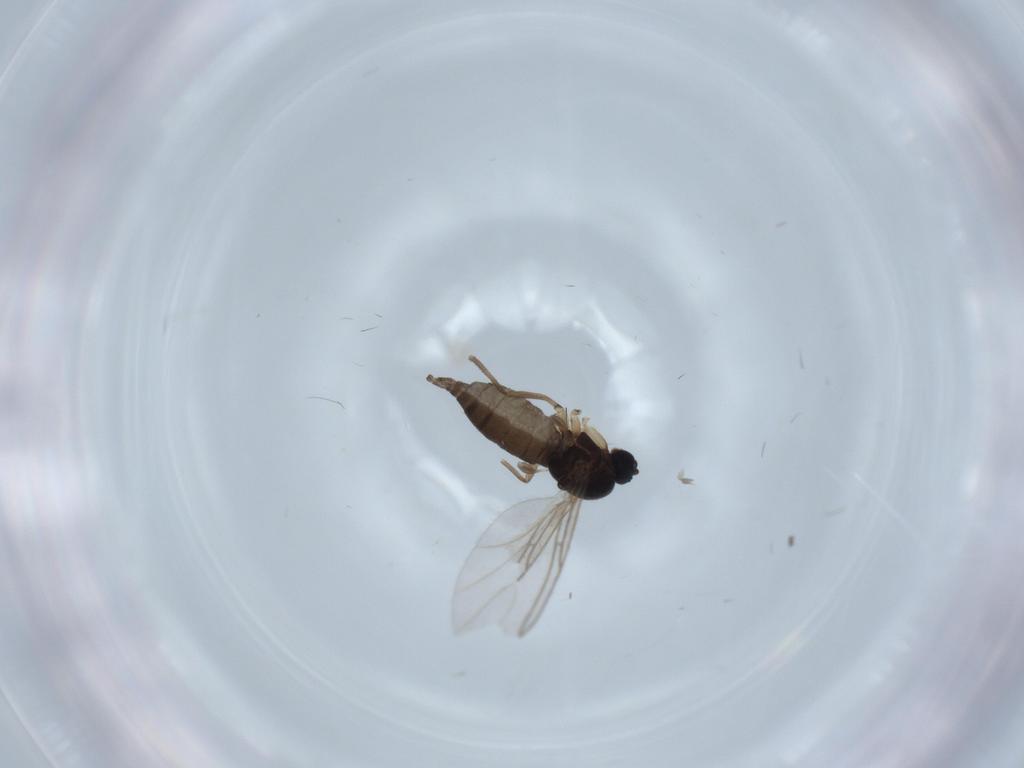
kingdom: Animalia
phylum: Arthropoda
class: Insecta
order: Diptera
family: Sciaridae
